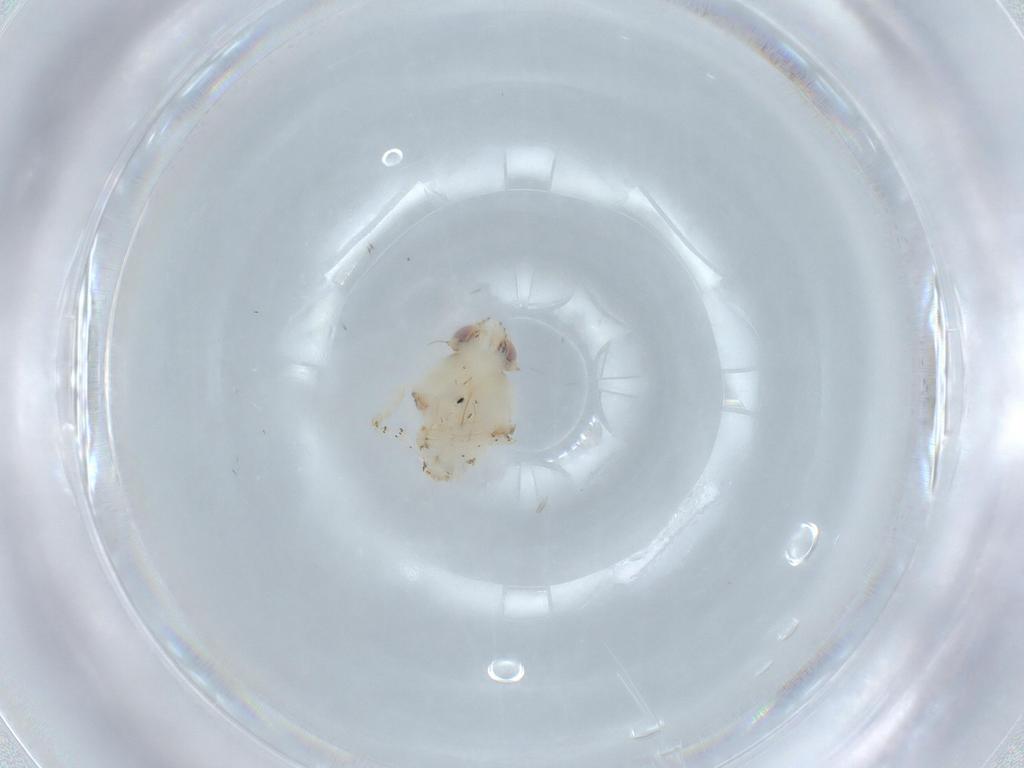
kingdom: Animalia
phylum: Arthropoda
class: Insecta
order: Hemiptera
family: Nogodinidae
